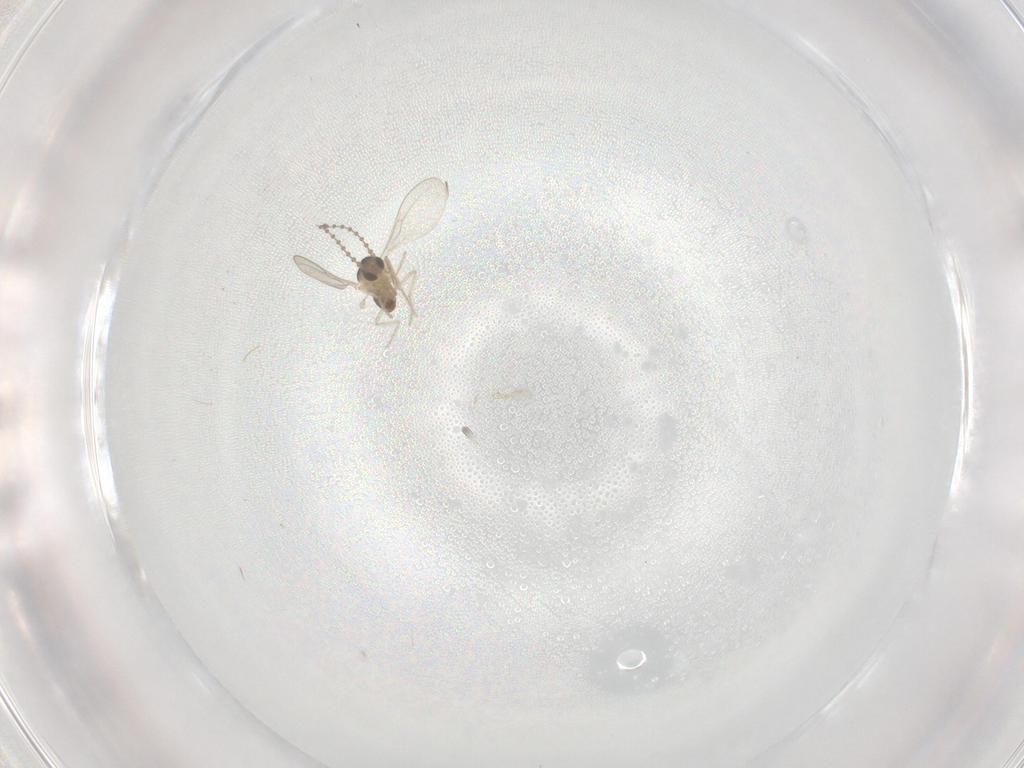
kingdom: Animalia
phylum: Arthropoda
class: Insecta
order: Diptera
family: Cecidomyiidae
